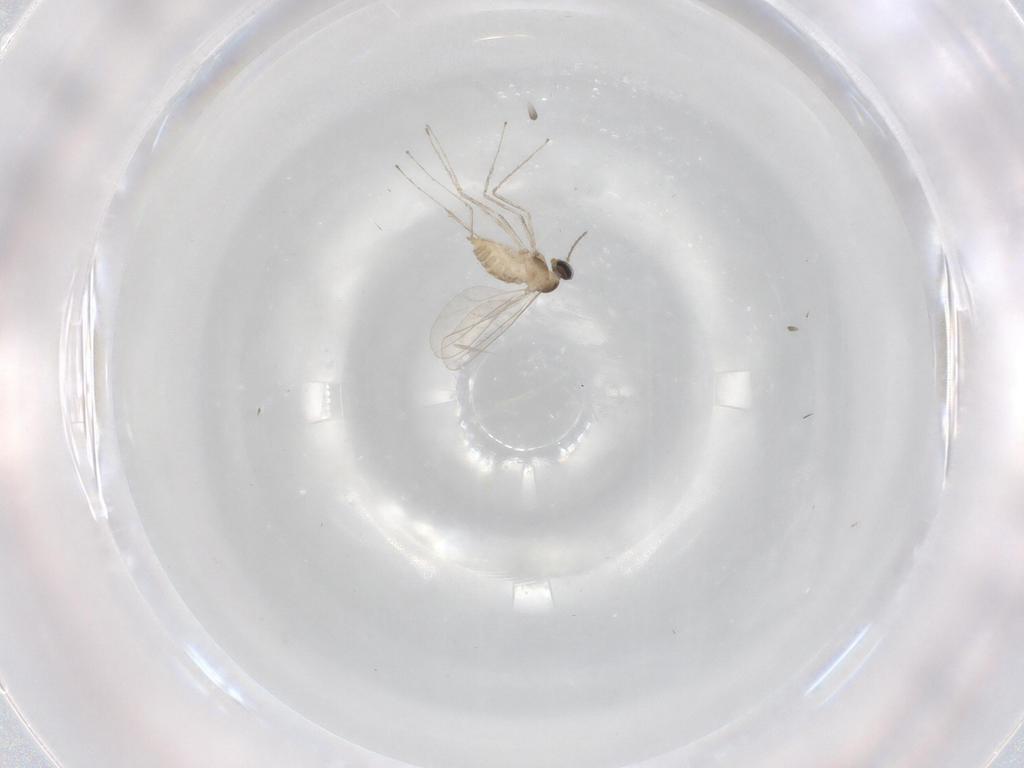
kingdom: Animalia
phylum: Arthropoda
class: Insecta
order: Diptera
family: Cecidomyiidae
